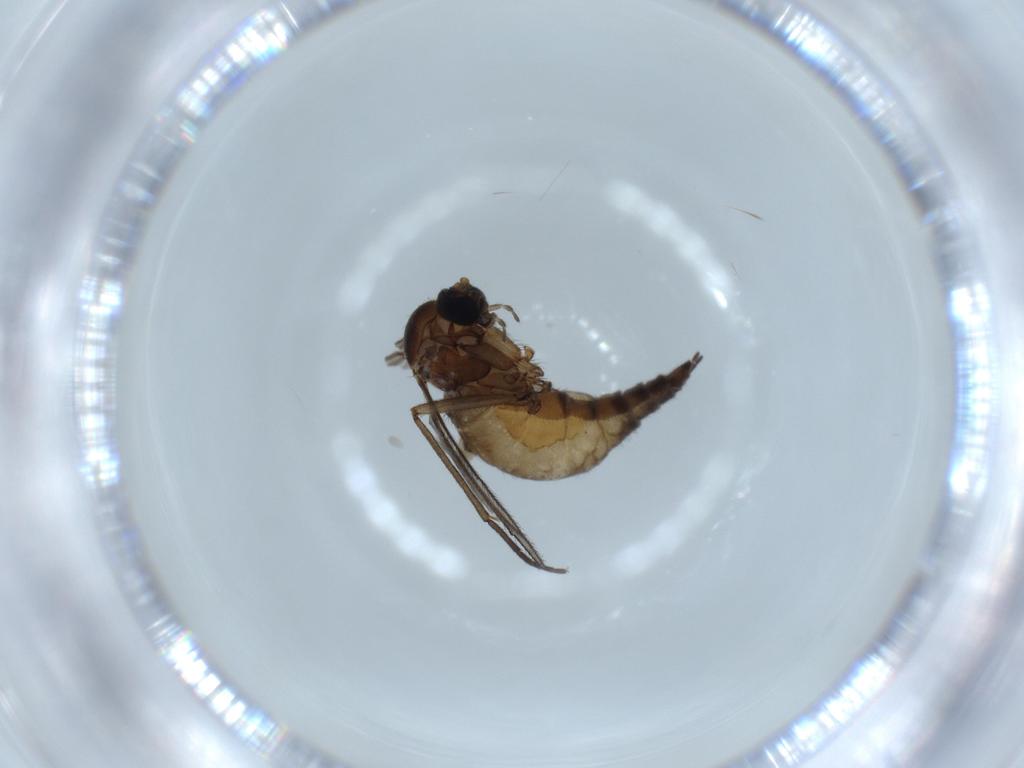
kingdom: Animalia
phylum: Arthropoda
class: Insecta
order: Diptera
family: Sciaridae
